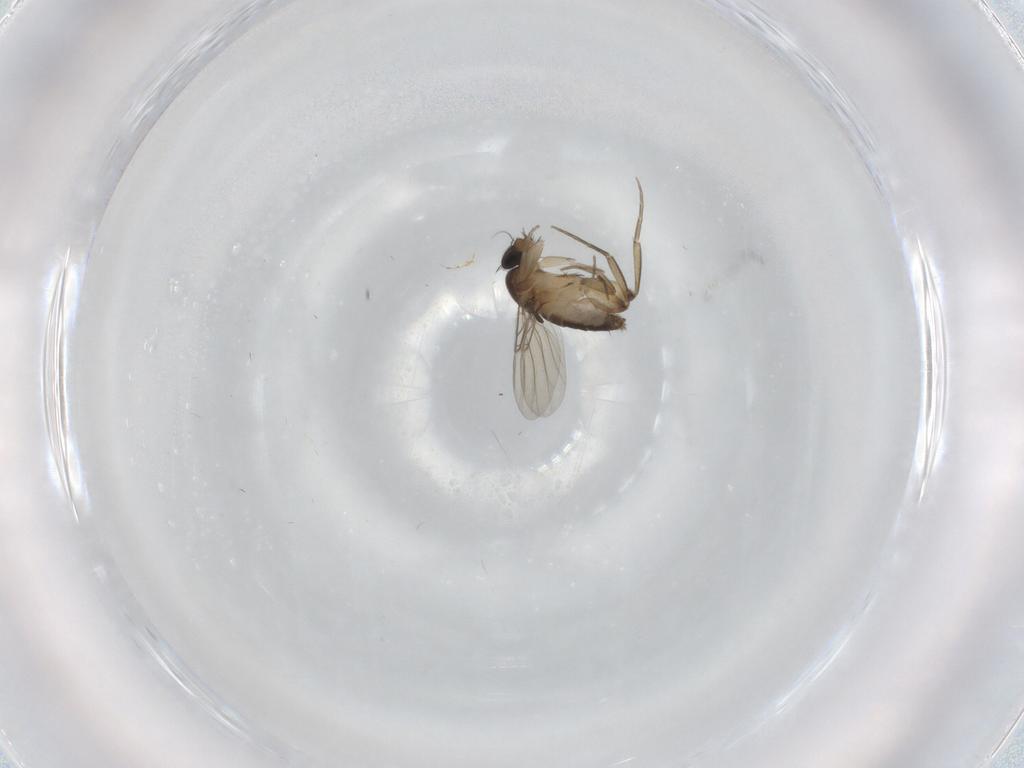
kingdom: Animalia
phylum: Arthropoda
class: Insecta
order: Diptera
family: Phoridae
